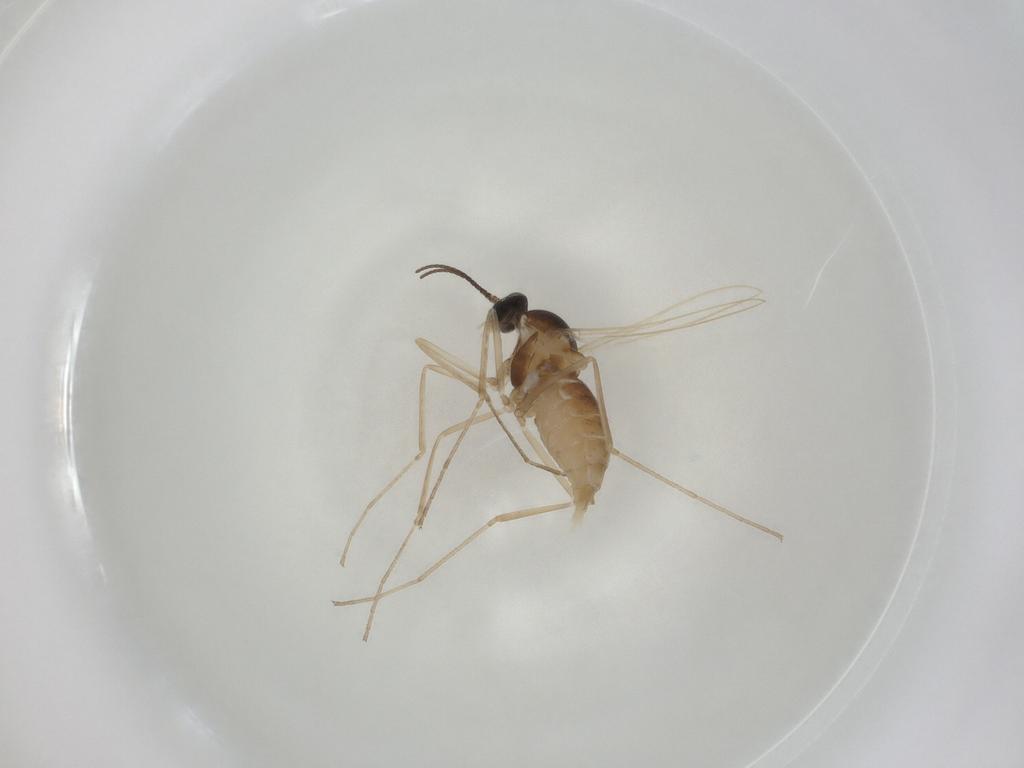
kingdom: Animalia
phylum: Arthropoda
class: Insecta
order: Diptera
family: Cecidomyiidae
